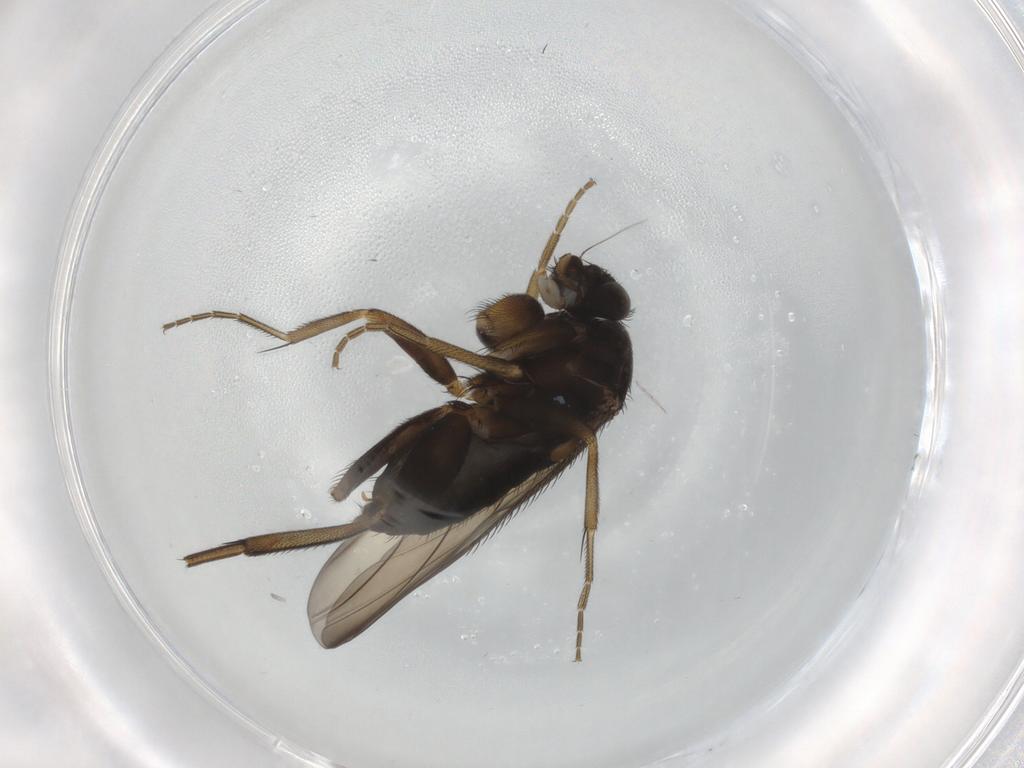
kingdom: Animalia
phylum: Arthropoda
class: Insecta
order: Diptera
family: Phoridae
